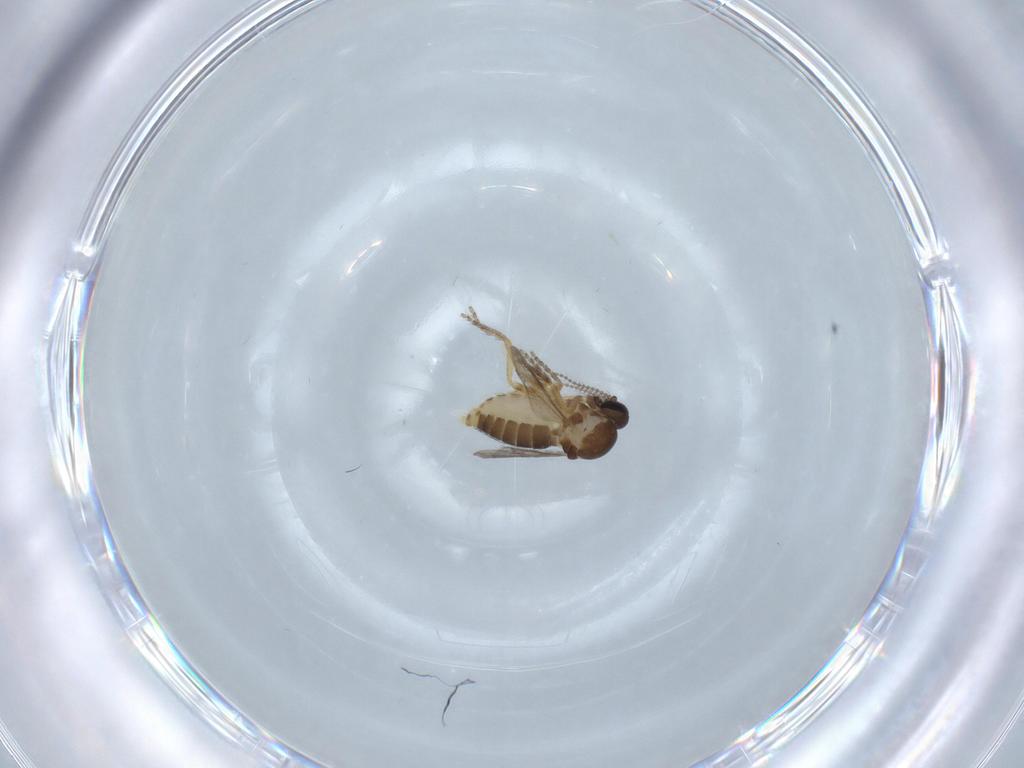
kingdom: Animalia
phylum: Arthropoda
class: Insecta
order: Diptera
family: Ceratopogonidae
